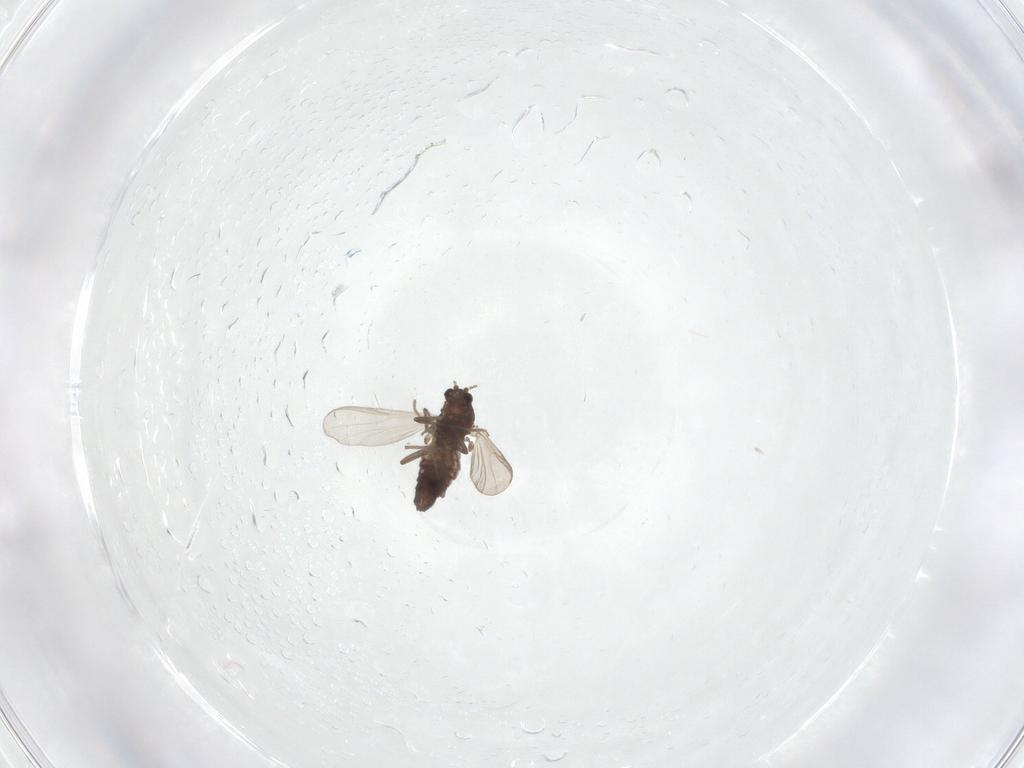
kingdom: Animalia
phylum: Arthropoda
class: Insecta
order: Diptera
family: Chironomidae
